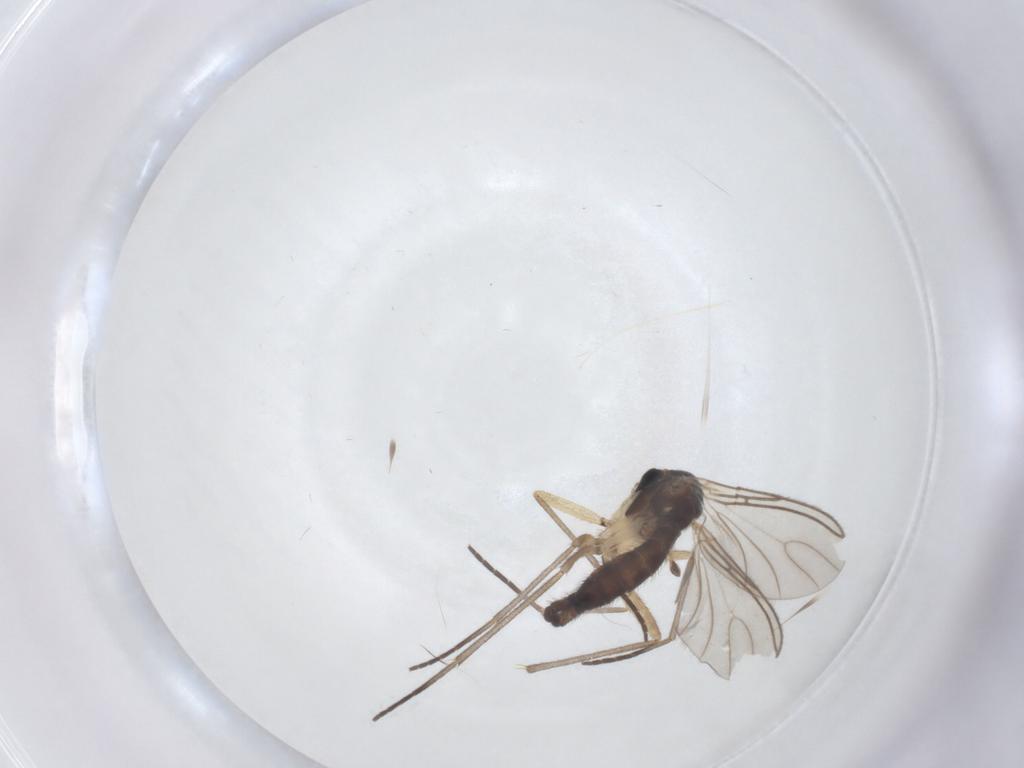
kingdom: Animalia
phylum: Arthropoda
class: Insecta
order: Diptera
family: Sciaridae
